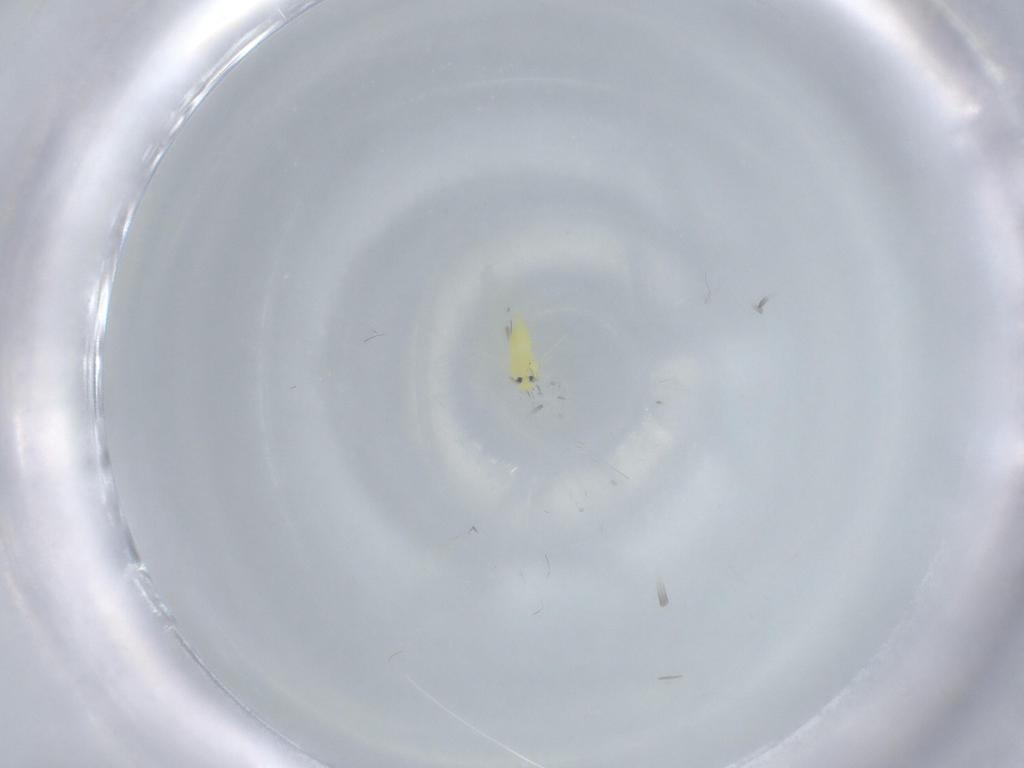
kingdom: Animalia
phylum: Arthropoda
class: Insecta
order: Hemiptera
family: Aleyrodidae
